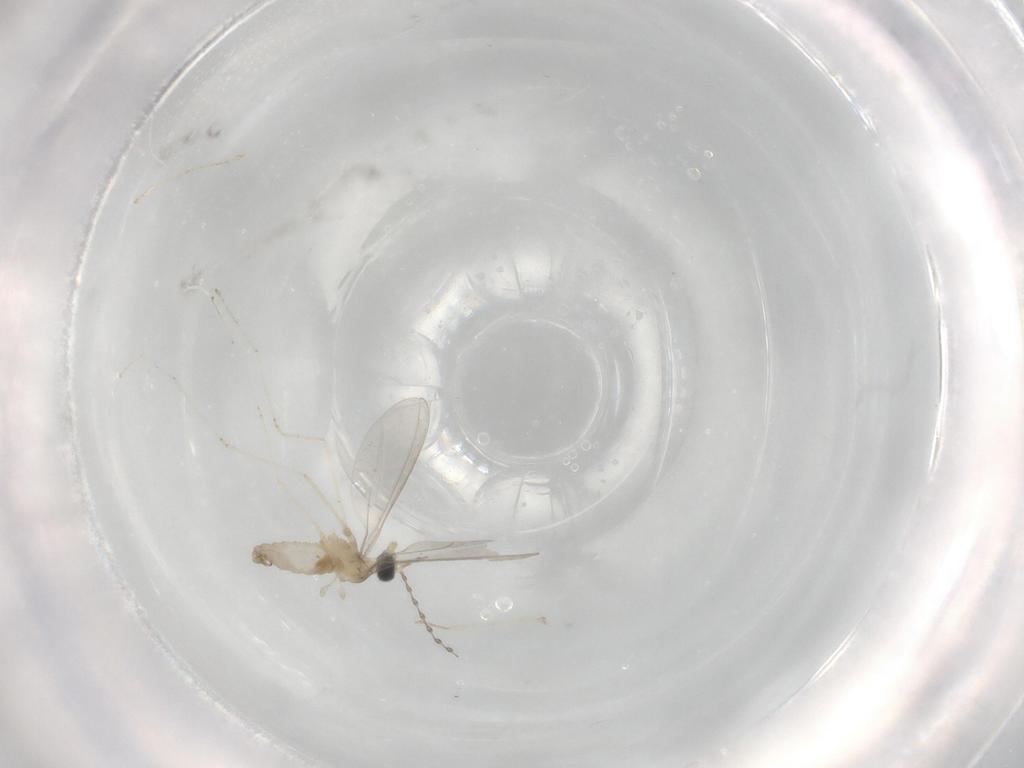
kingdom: Animalia
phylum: Arthropoda
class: Insecta
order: Diptera
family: Cecidomyiidae
